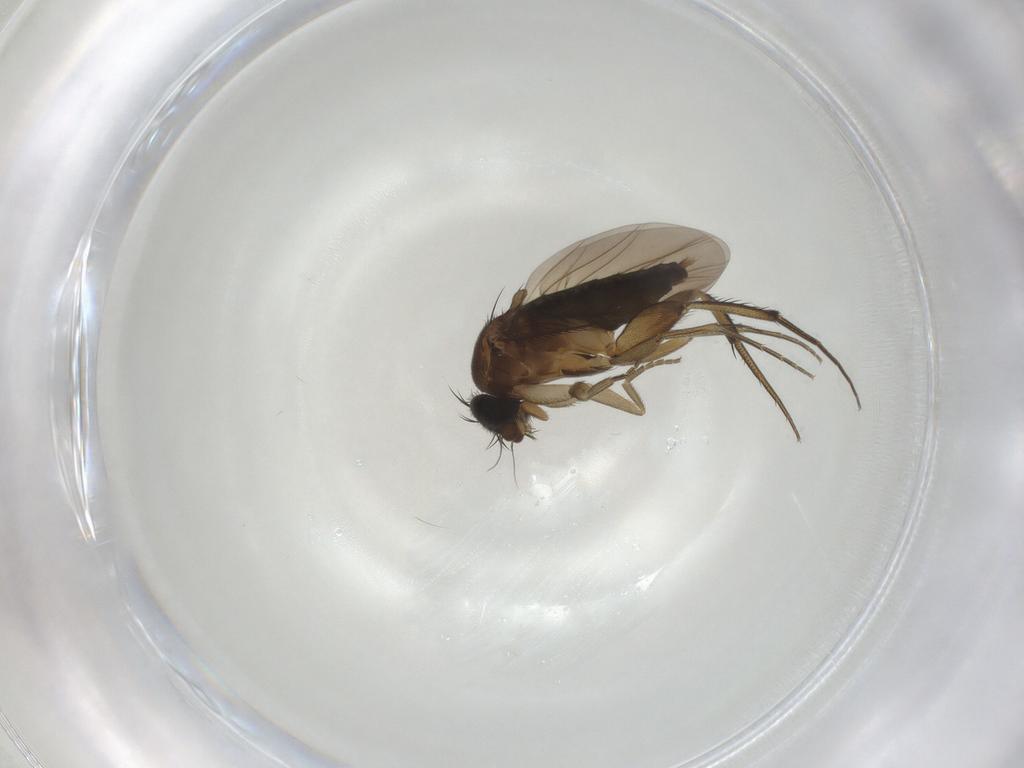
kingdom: Animalia
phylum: Arthropoda
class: Insecta
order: Diptera
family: Phoridae
